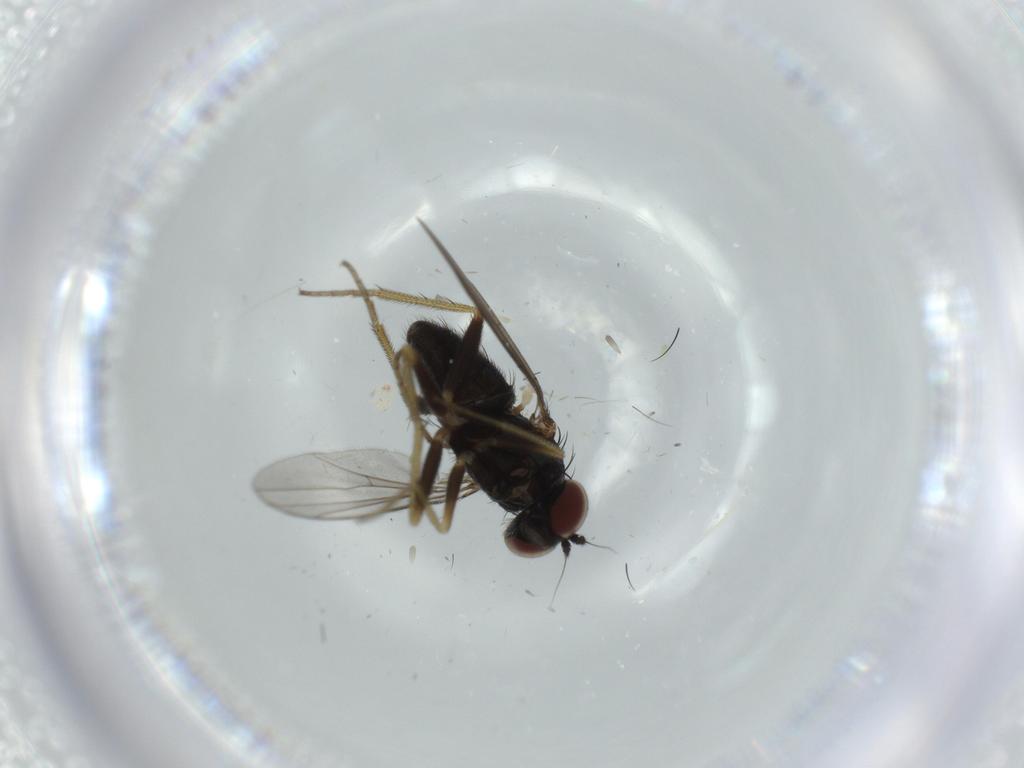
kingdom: Animalia
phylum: Arthropoda
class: Insecta
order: Diptera
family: Dolichopodidae
